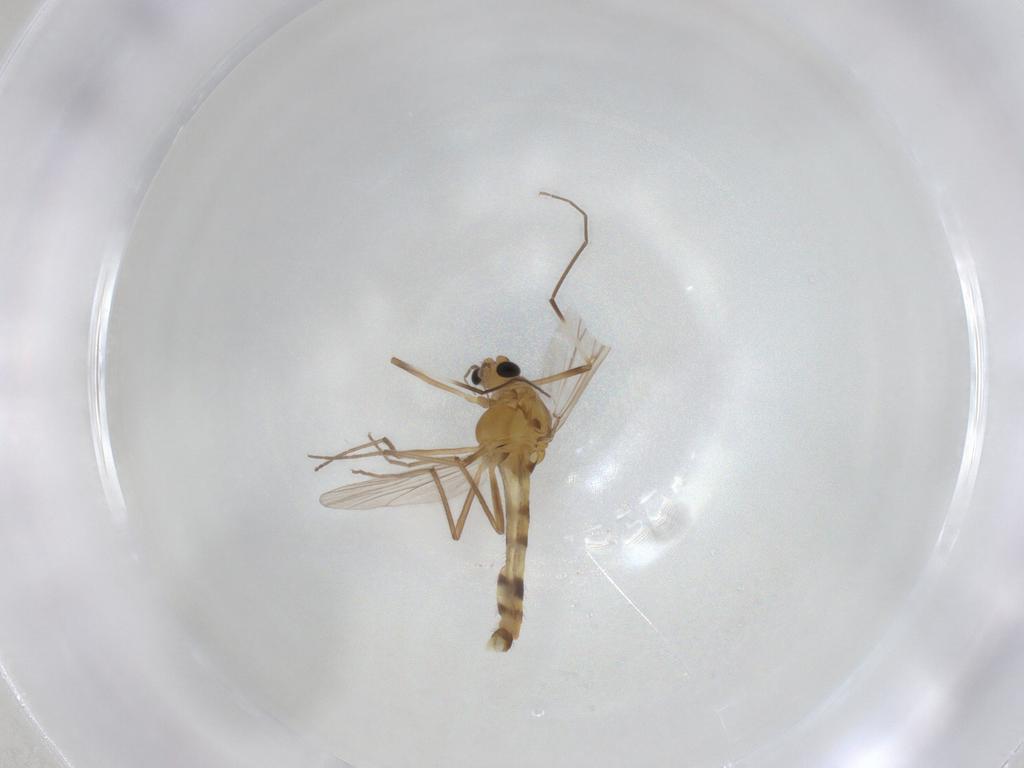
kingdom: Animalia
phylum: Arthropoda
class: Insecta
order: Diptera
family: Chironomidae
